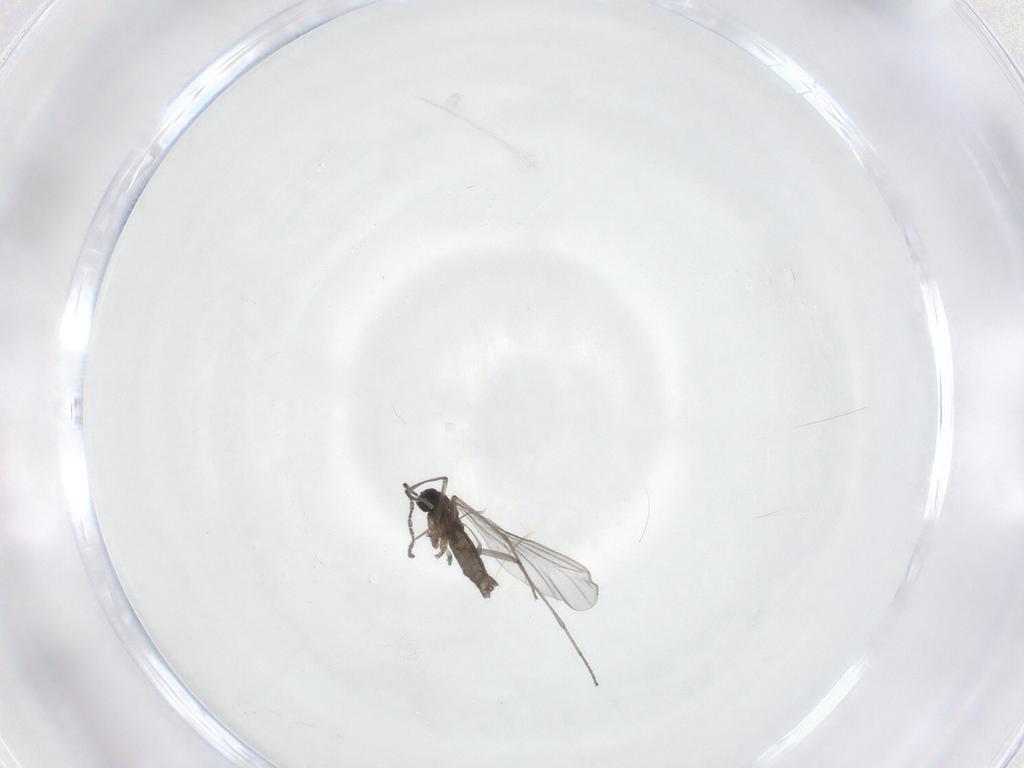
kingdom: Animalia
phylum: Arthropoda
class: Insecta
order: Diptera
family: Sciaridae
